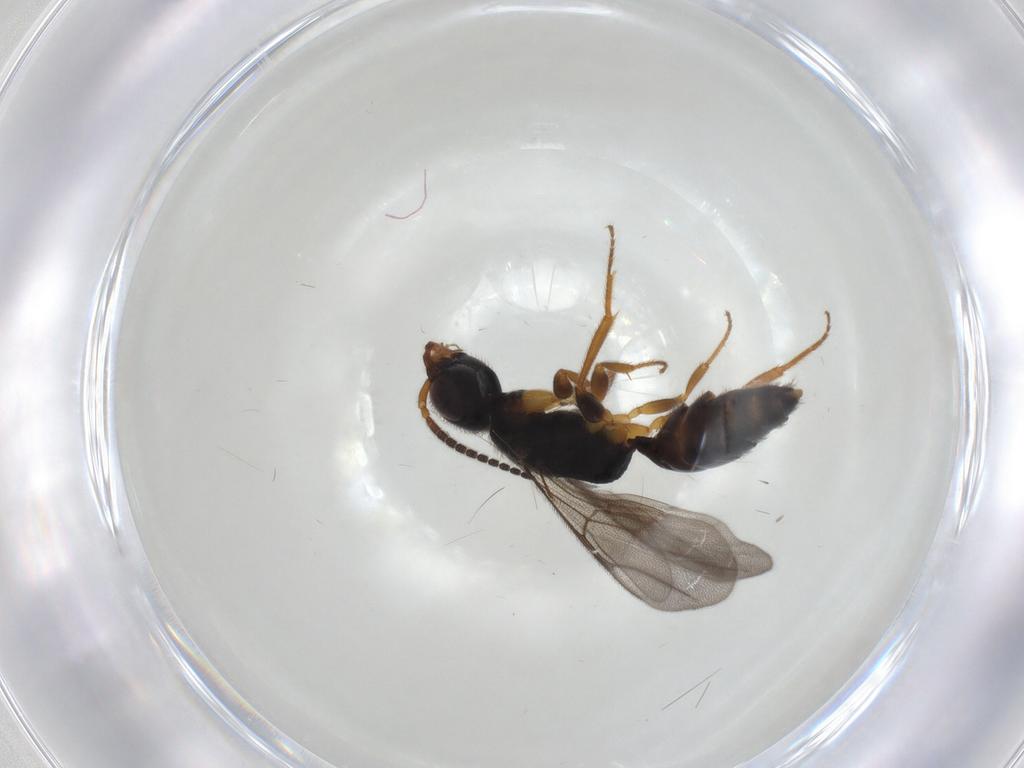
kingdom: Animalia
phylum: Arthropoda
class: Insecta
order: Hymenoptera
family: Bethylidae
